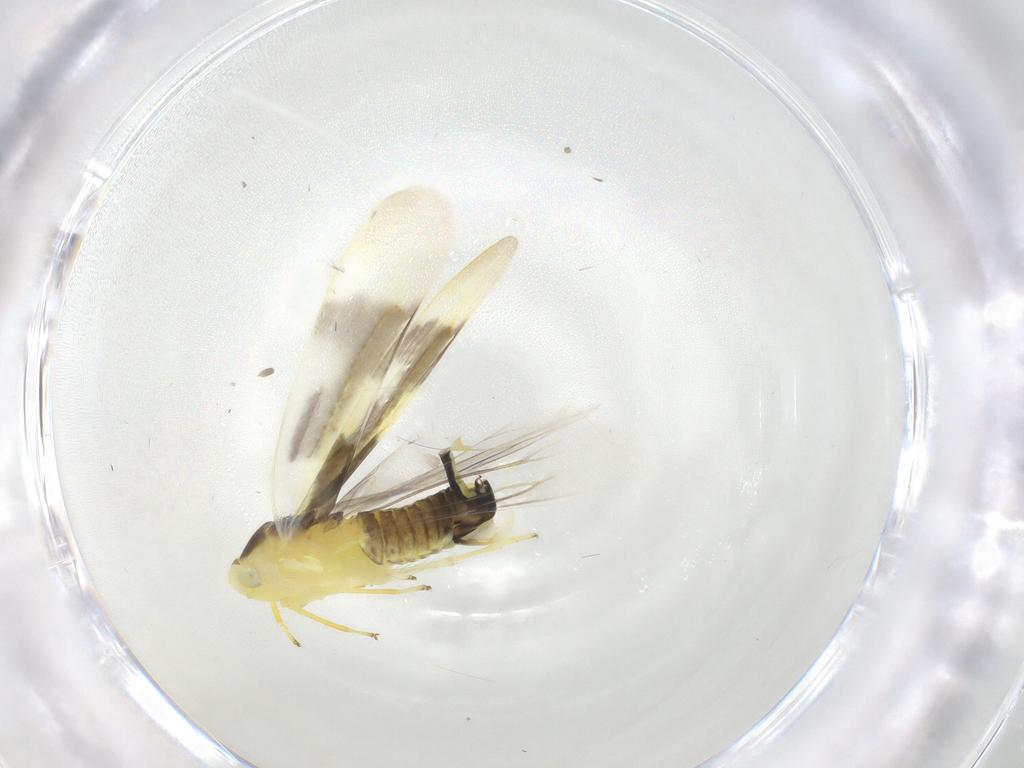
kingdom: Animalia
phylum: Arthropoda
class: Insecta
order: Hemiptera
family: Cicadellidae
